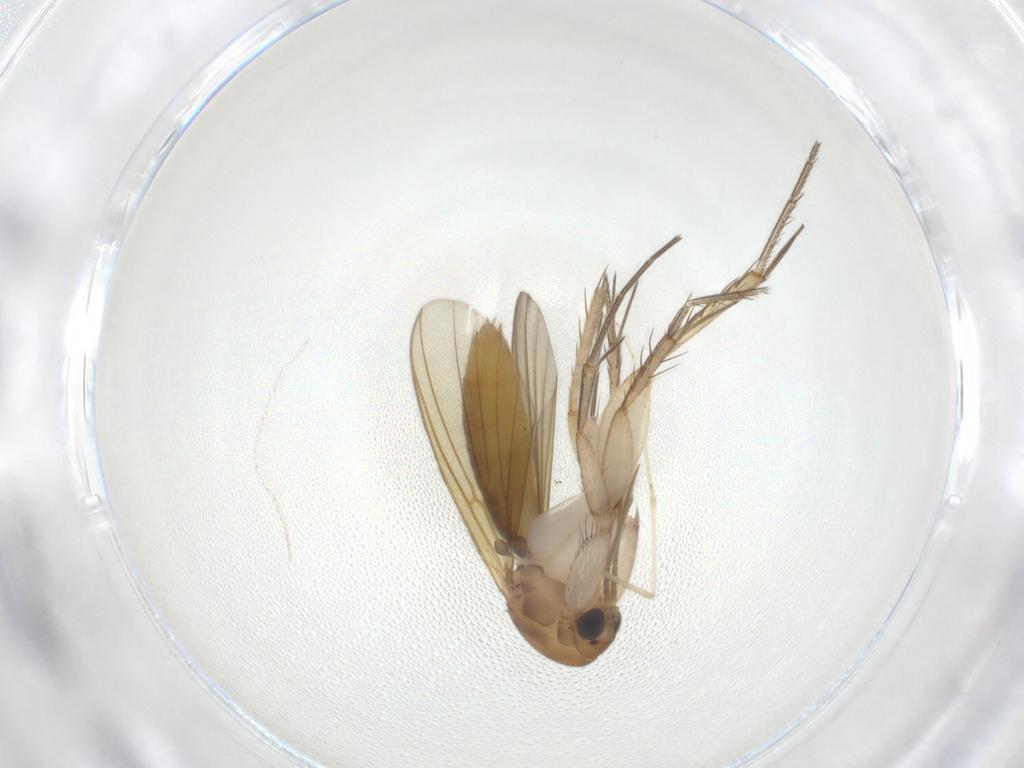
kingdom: Animalia
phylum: Arthropoda
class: Insecta
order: Diptera
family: Drosophilidae
